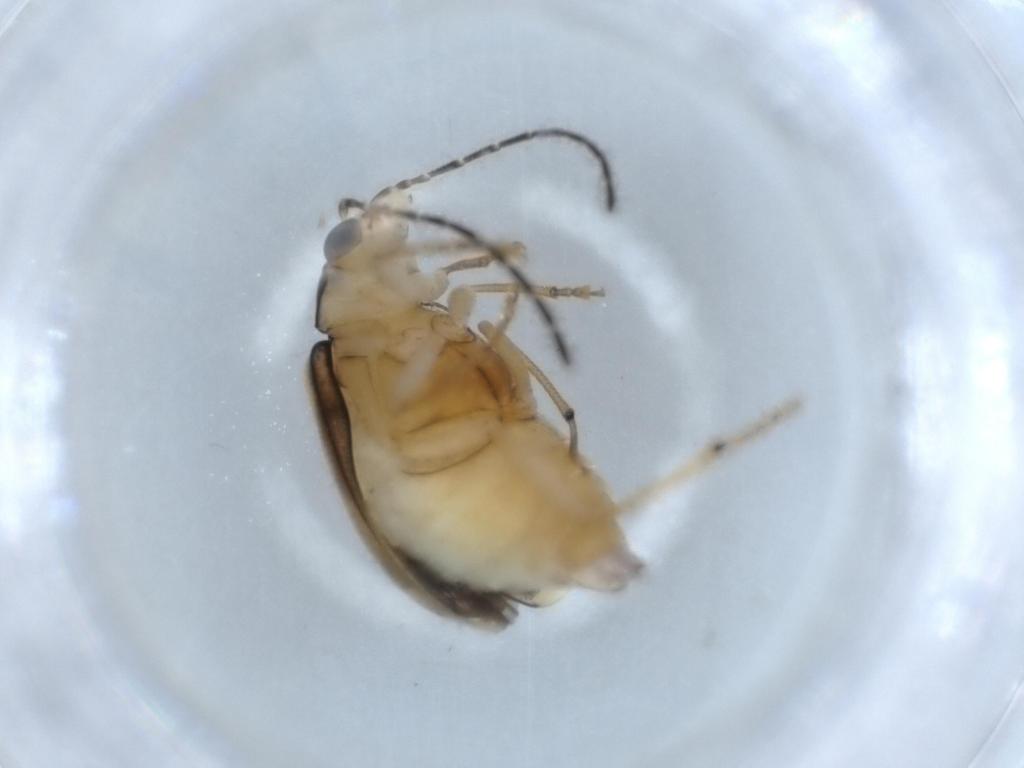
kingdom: Animalia
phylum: Arthropoda
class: Insecta
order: Coleoptera
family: Chrysomelidae
